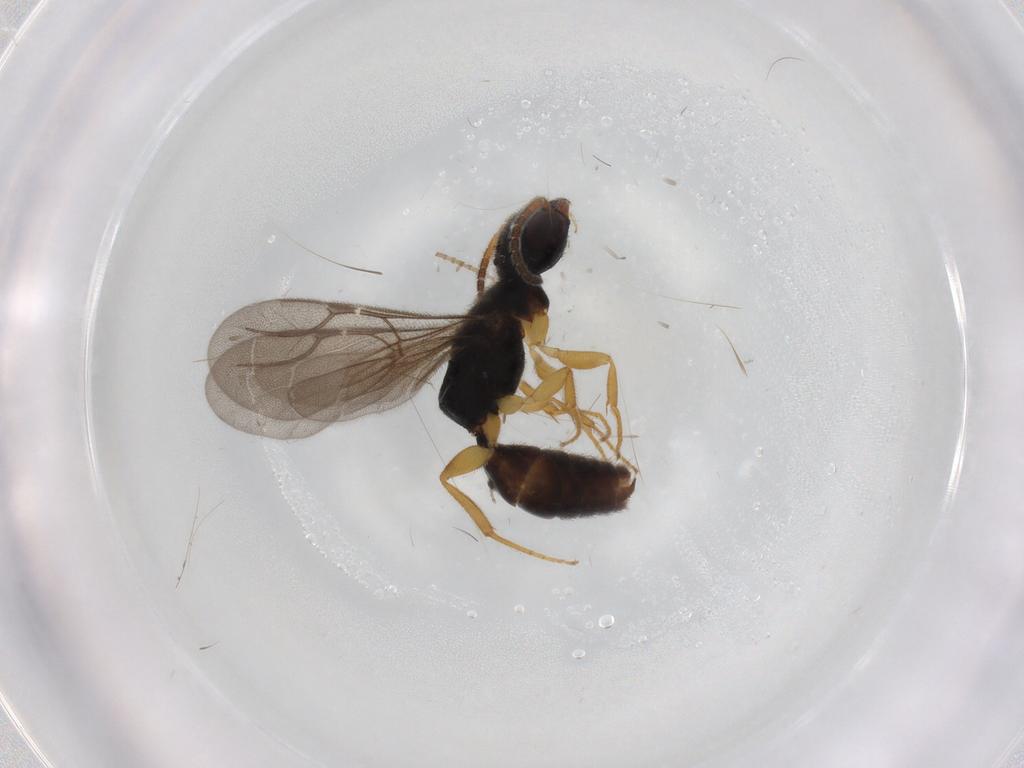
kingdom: Animalia
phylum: Arthropoda
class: Insecta
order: Hymenoptera
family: Bethylidae
